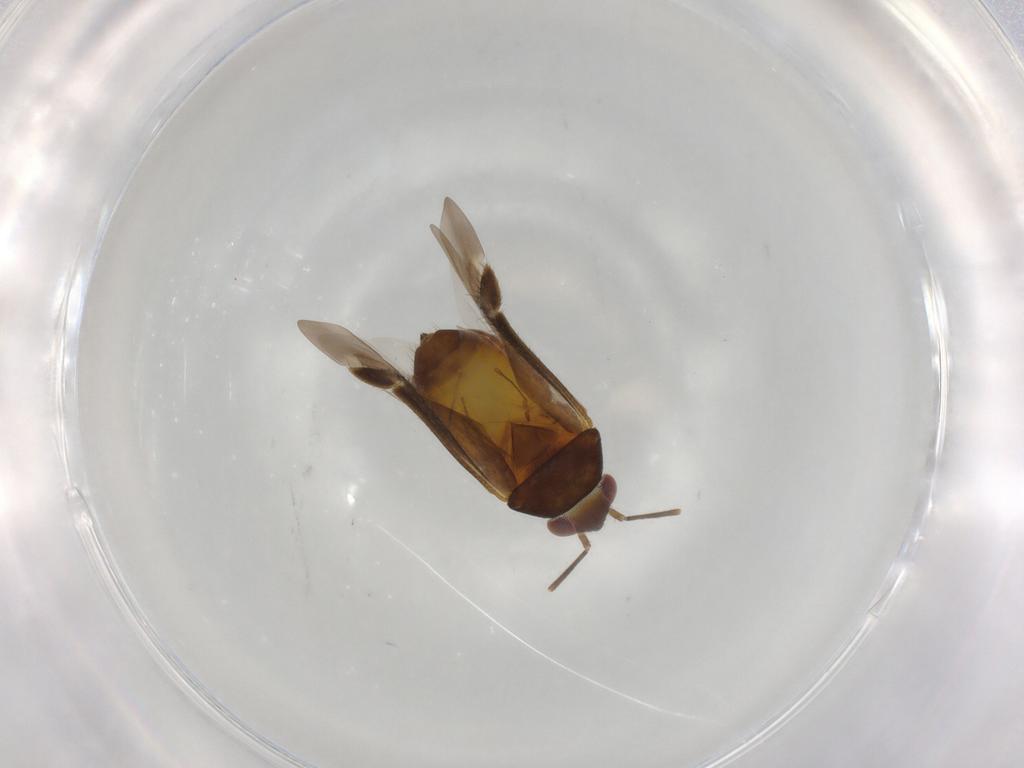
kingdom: Animalia
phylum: Arthropoda
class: Insecta
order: Hemiptera
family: Miridae
